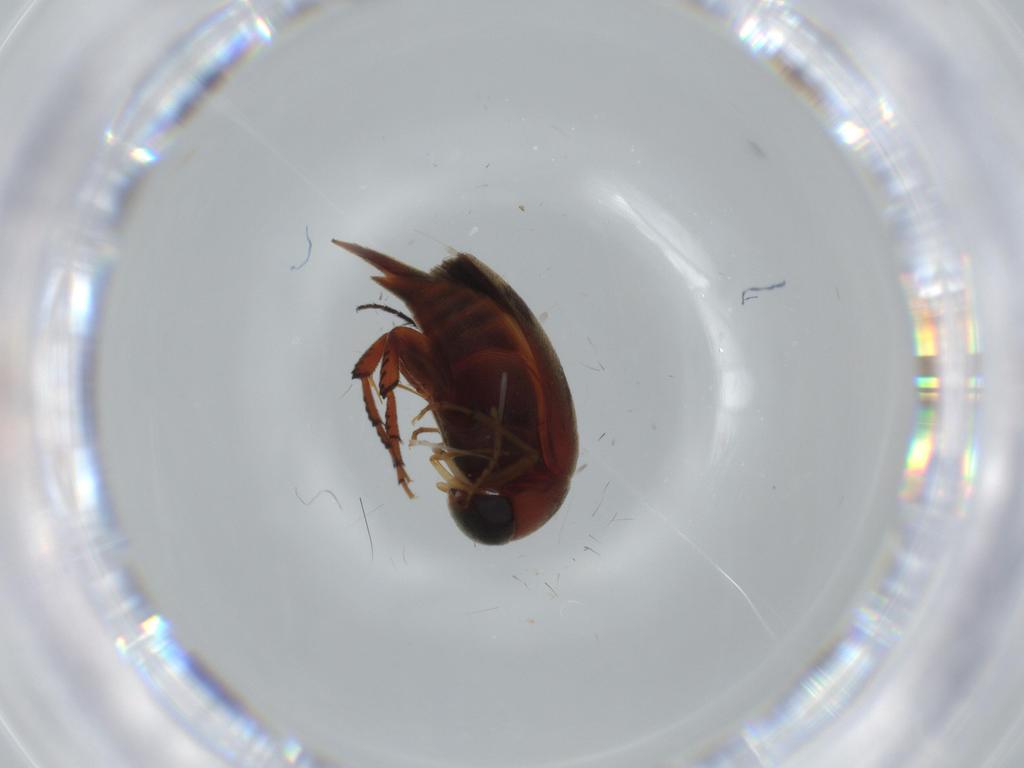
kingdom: Animalia
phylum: Arthropoda
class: Insecta
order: Coleoptera
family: Mordellidae
